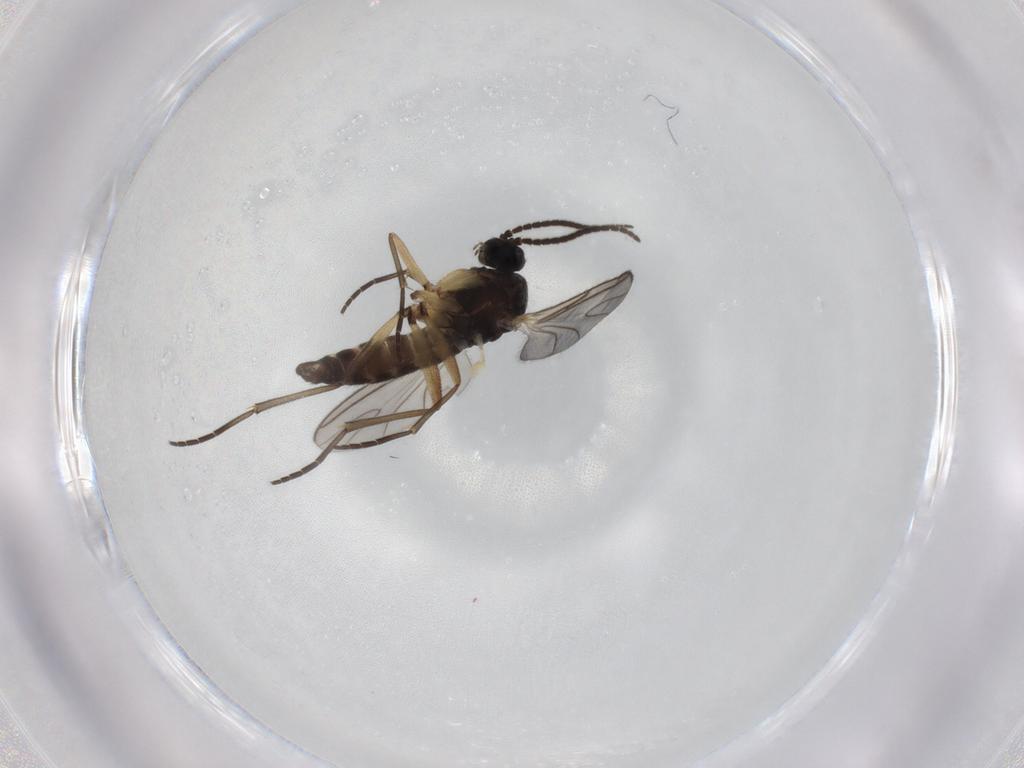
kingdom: Animalia
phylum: Arthropoda
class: Insecta
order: Diptera
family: Sciaridae
